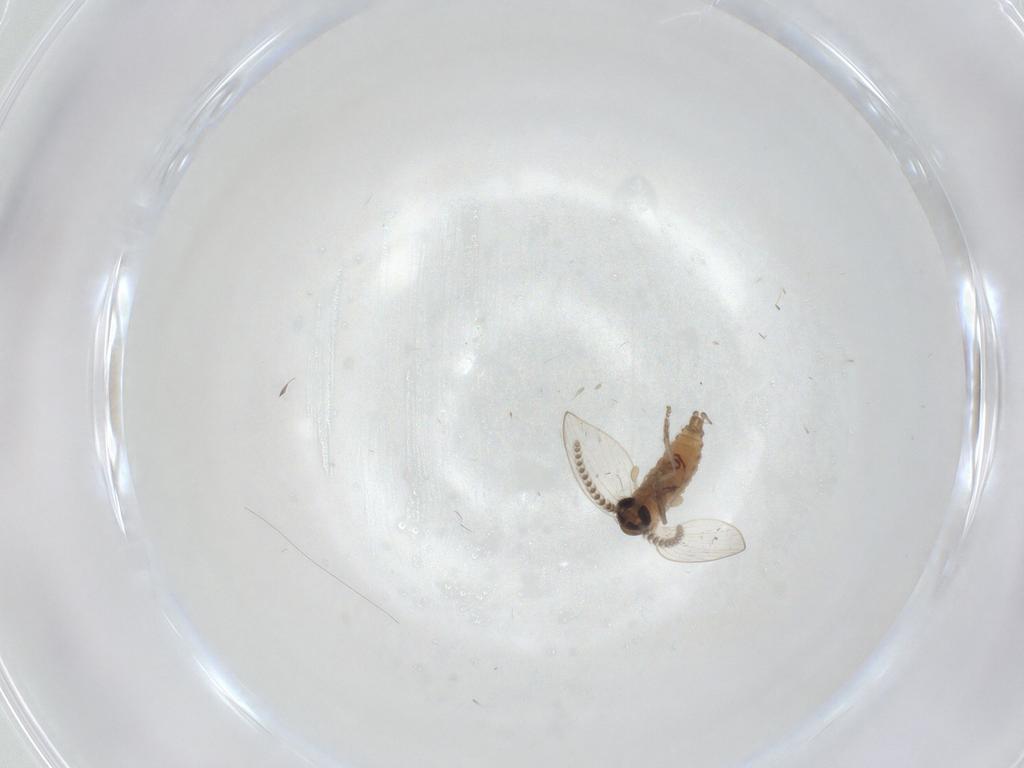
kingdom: Animalia
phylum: Arthropoda
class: Insecta
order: Diptera
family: Psychodidae
